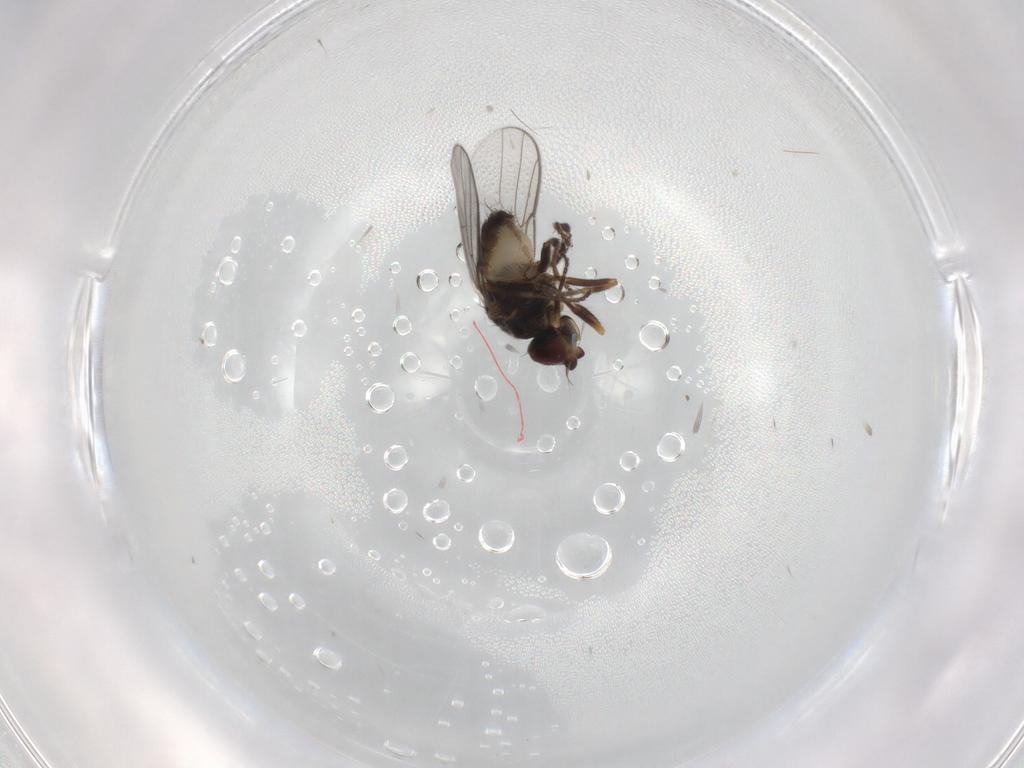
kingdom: Animalia
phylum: Arthropoda
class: Insecta
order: Diptera
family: Chloropidae
